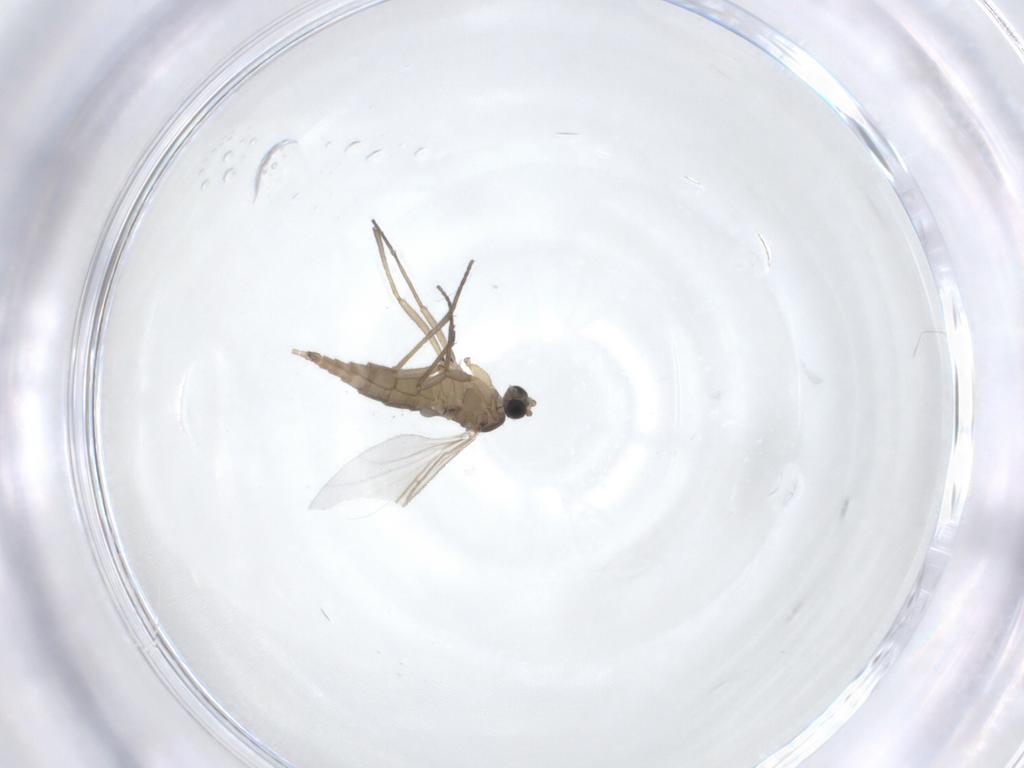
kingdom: Animalia
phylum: Arthropoda
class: Insecta
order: Diptera
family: Sciaridae
